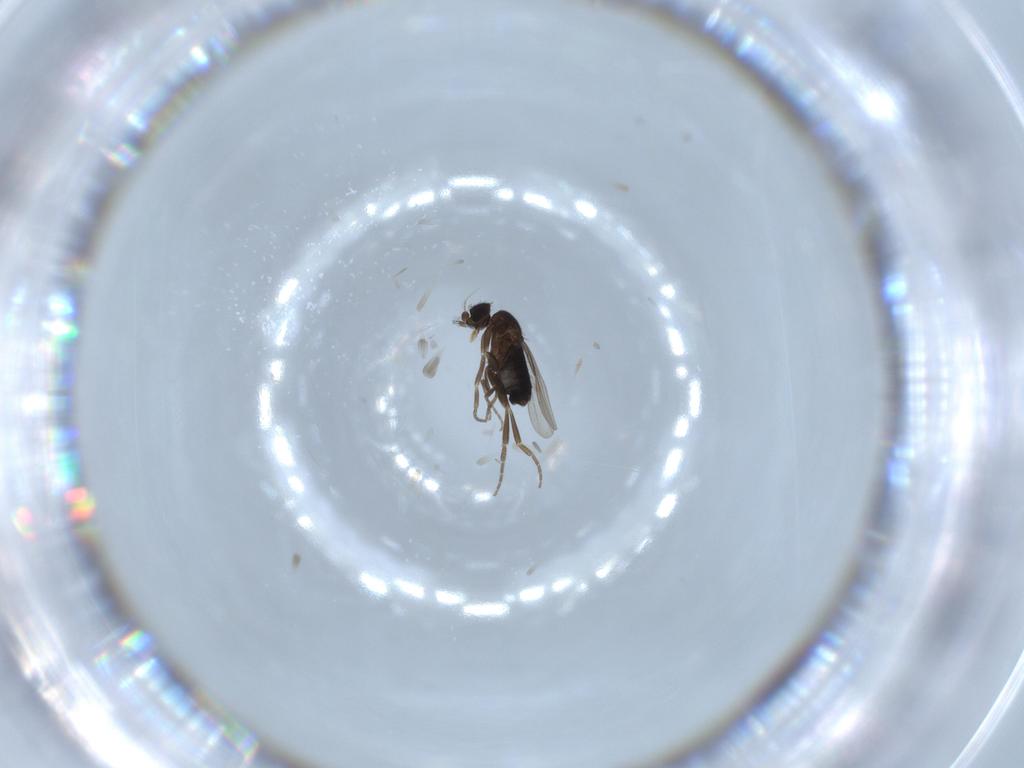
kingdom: Animalia
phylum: Arthropoda
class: Insecta
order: Diptera
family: Phoridae
